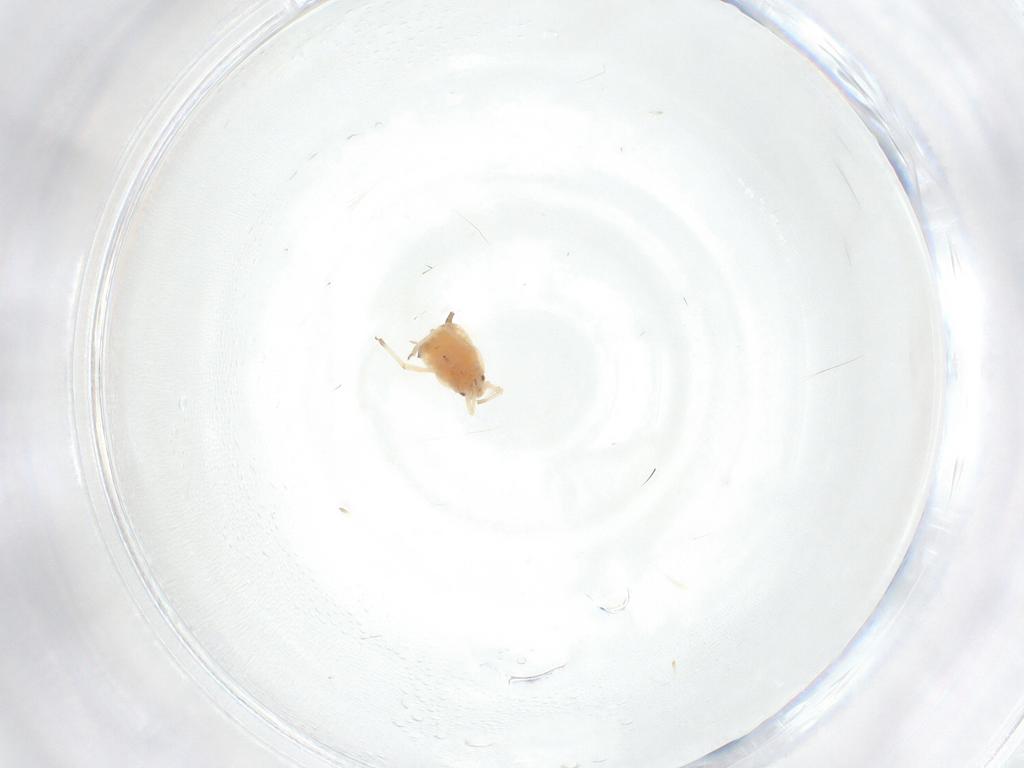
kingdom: Animalia
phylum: Arthropoda
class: Insecta
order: Hemiptera
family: Aphididae
